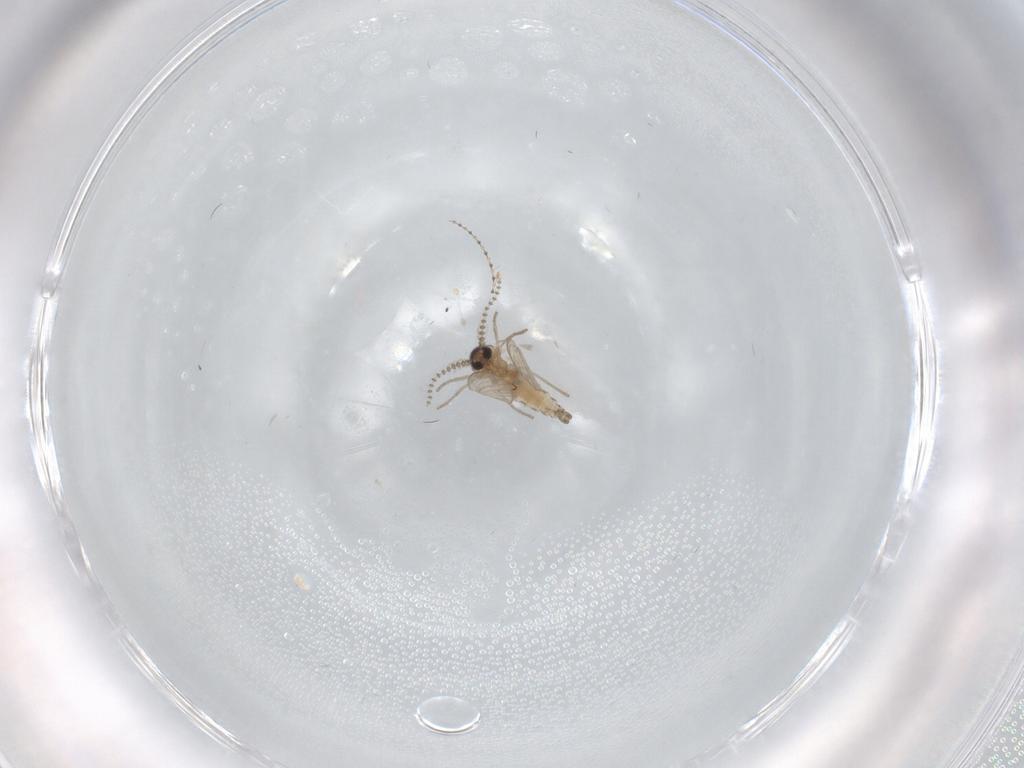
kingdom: Animalia
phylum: Arthropoda
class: Insecta
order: Diptera
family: Psychodidae
